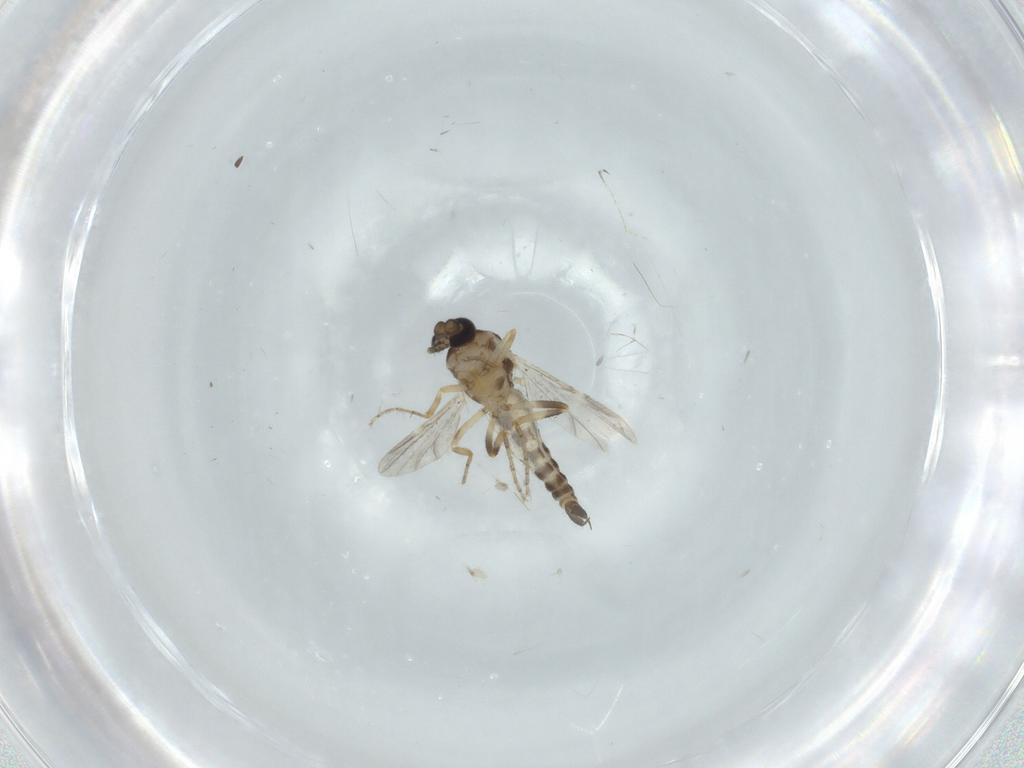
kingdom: Animalia
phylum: Arthropoda
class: Insecta
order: Diptera
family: Ceratopogonidae
